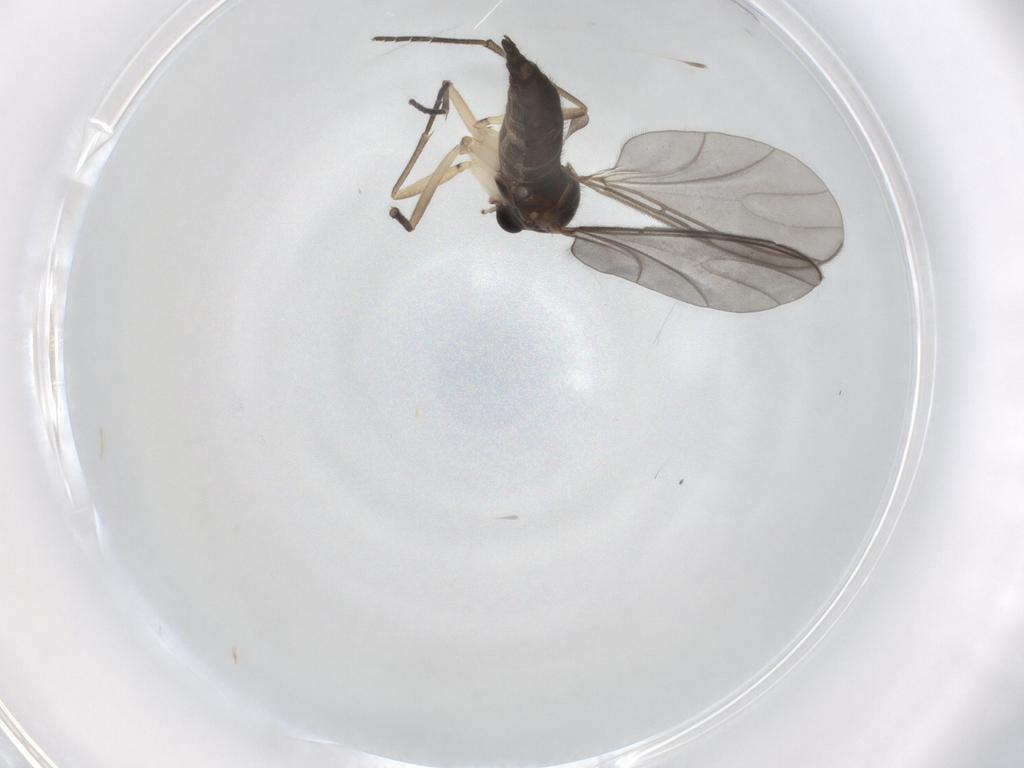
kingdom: Animalia
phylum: Arthropoda
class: Insecta
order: Diptera
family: Sciaridae
